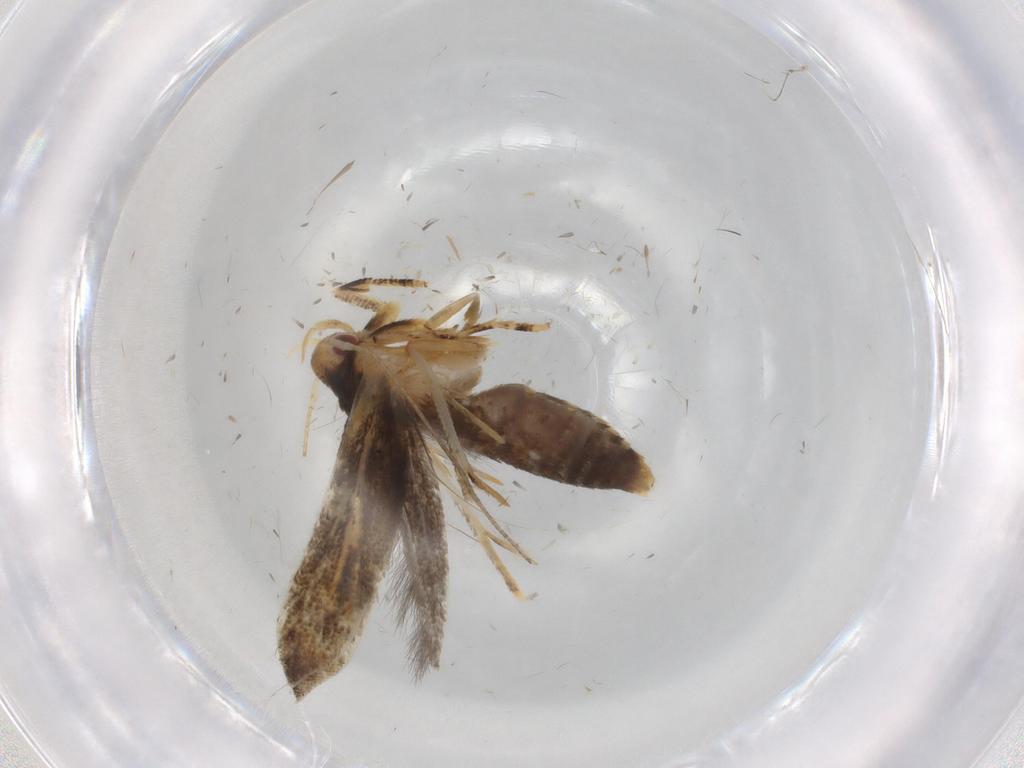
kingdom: Animalia
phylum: Arthropoda
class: Insecta
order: Lepidoptera
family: Momphidae
